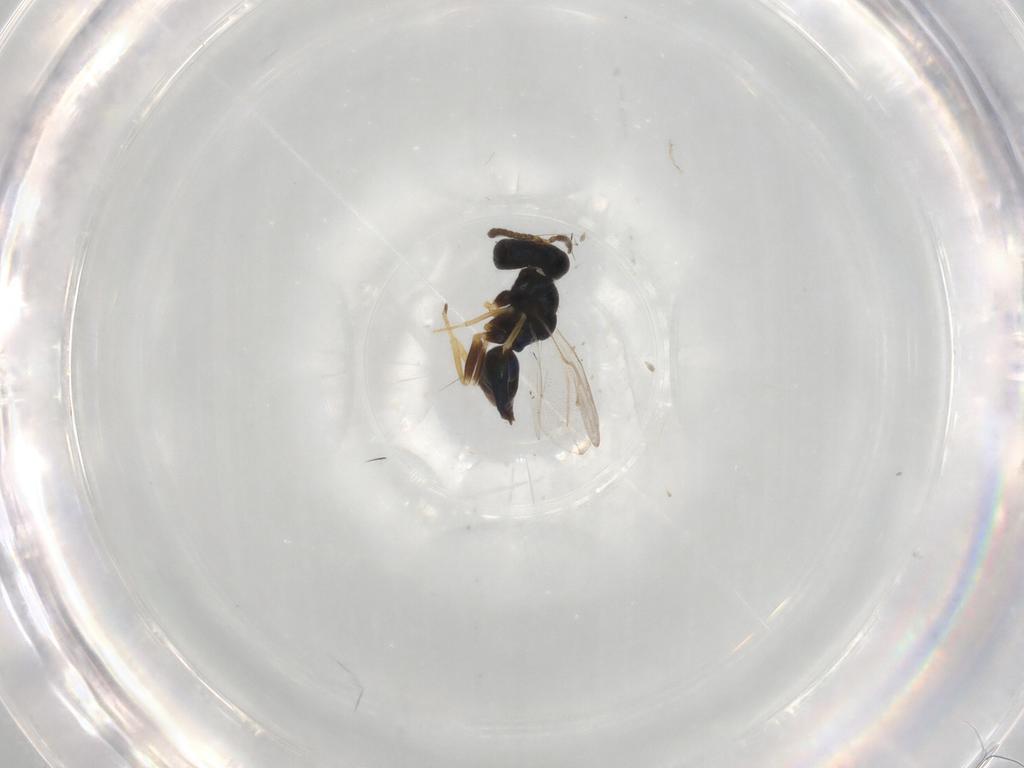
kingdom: Animalia
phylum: Arthropoda
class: Insecta
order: Hymenoptera
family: Pteromalidae
